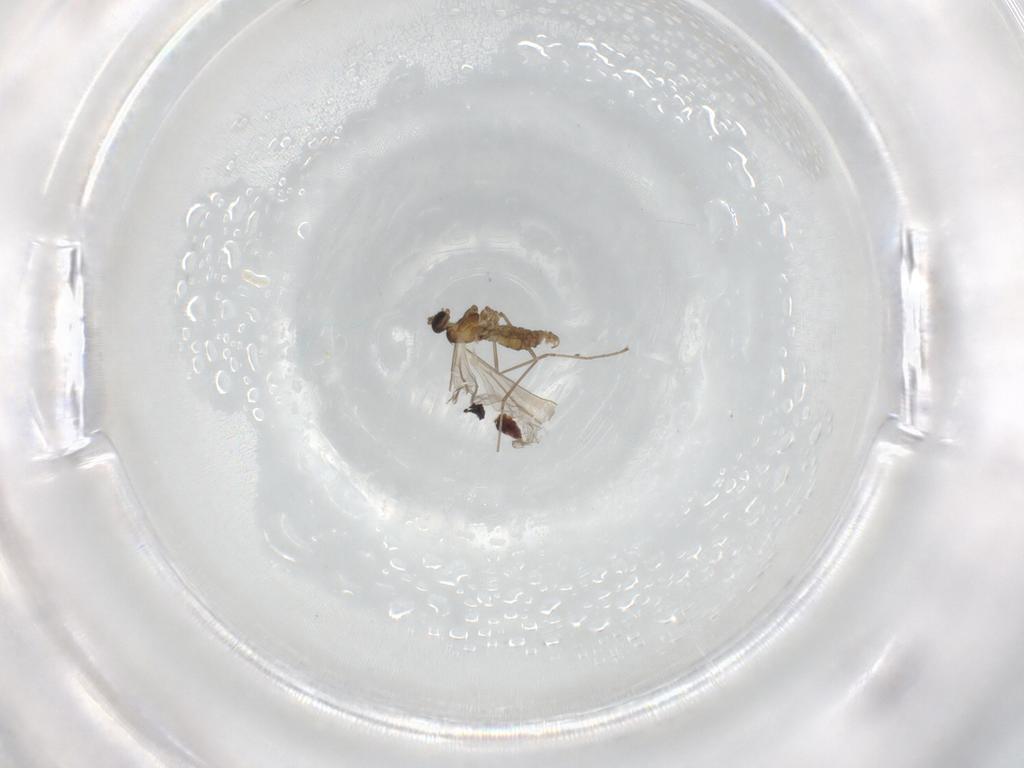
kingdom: Animalia
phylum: Arthropoda
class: Insecta
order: Diptera
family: Cecidomyiidae
